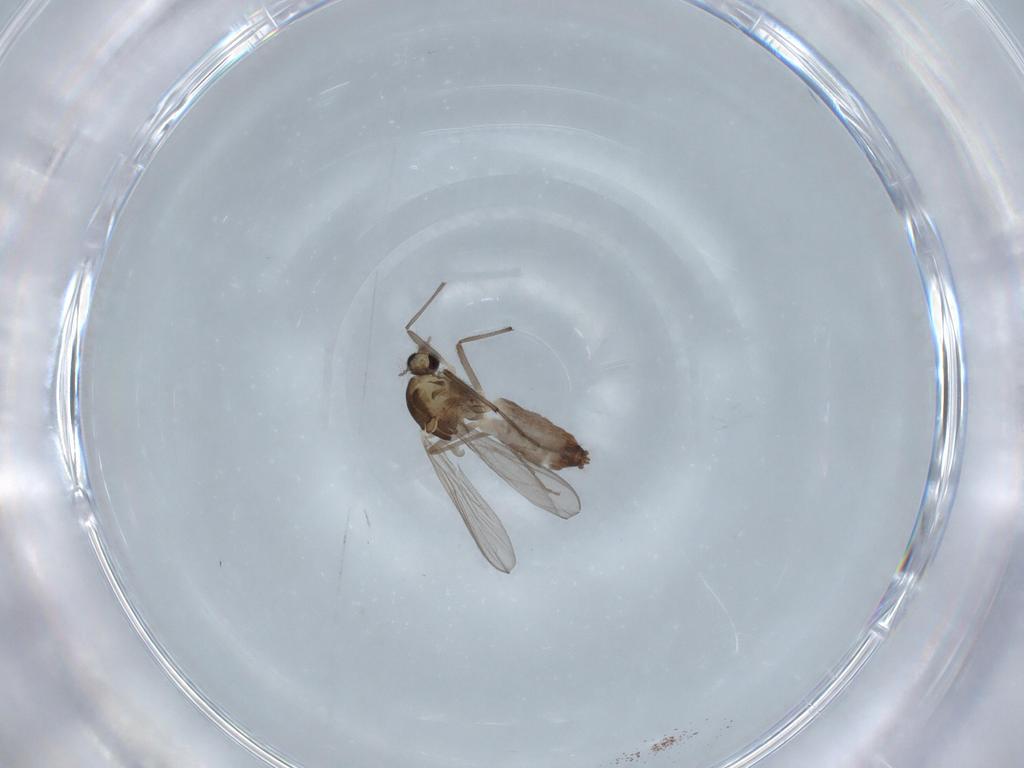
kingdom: Animalia
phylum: Arthropoda
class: Insecta
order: Diptera
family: Chironomidae
